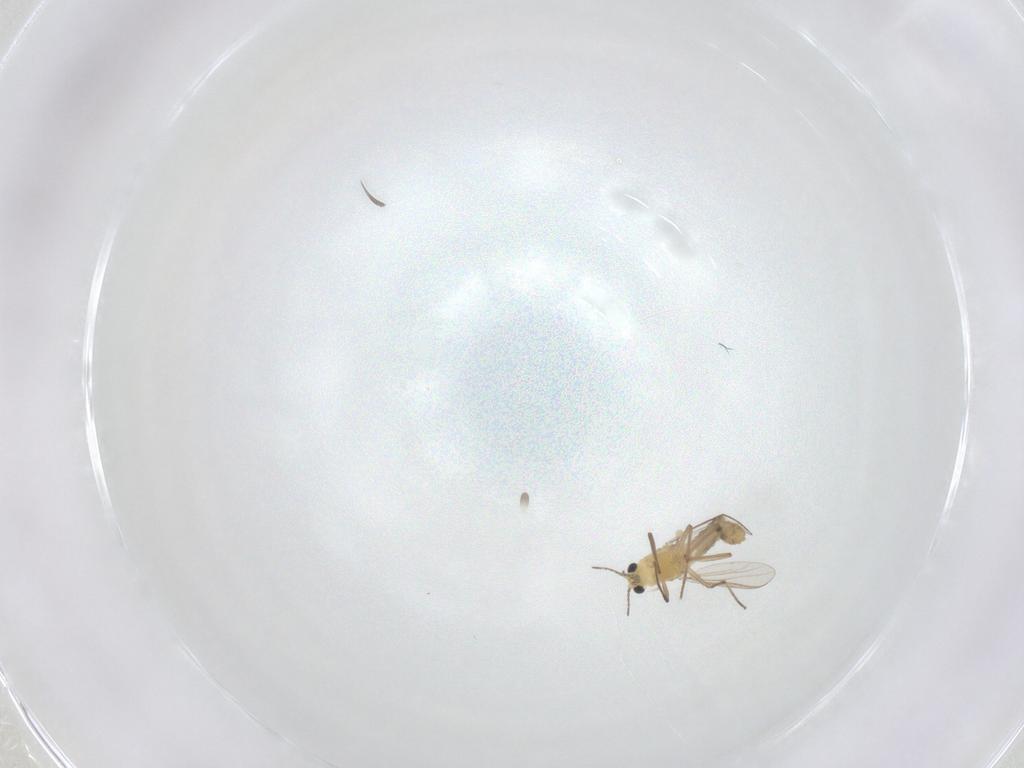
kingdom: Animalia
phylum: Arthropoda
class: Insecta
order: Diptera
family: Chironomidae
